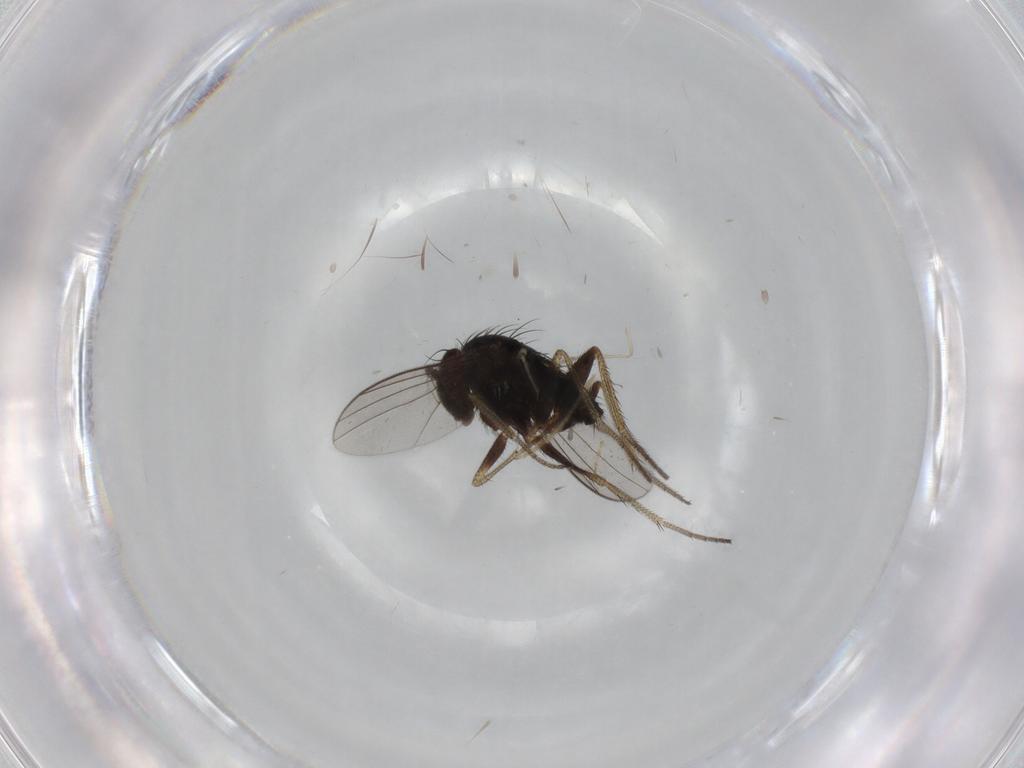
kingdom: Animalia
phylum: Arthropoda
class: Insecta
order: Diptera
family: Dolichopodidae
